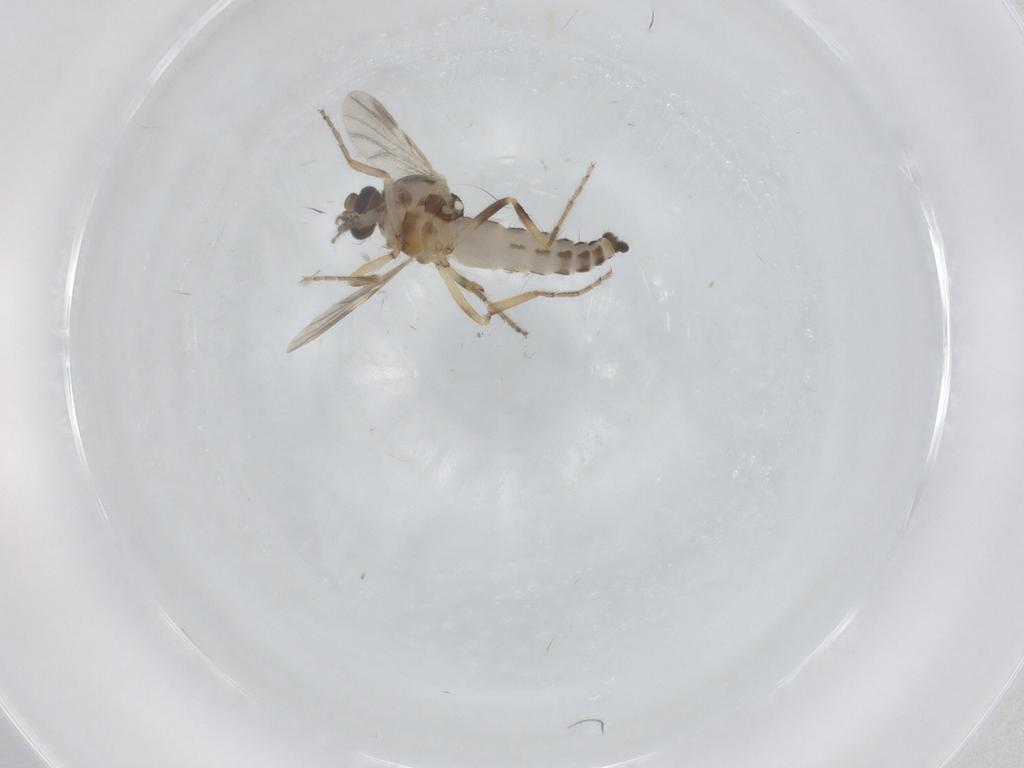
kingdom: Animalia
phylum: Arthropoda
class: Insecta
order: Diptera
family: Ceratopogonidae
